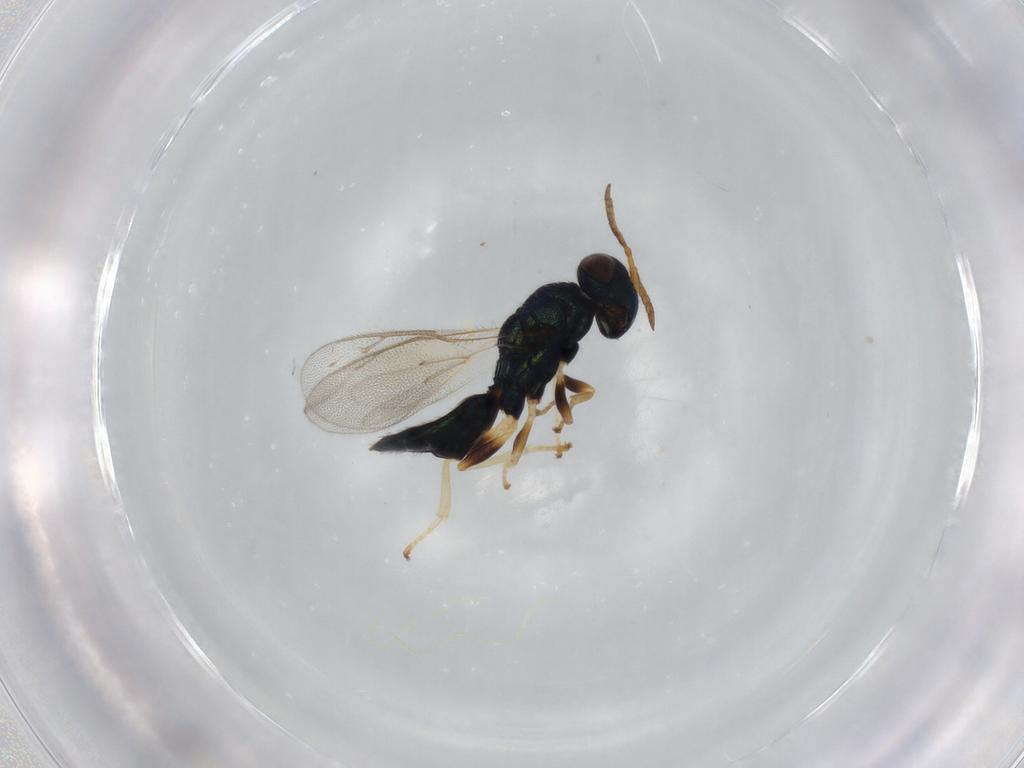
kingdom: Animalia
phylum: Arthropoda
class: Insecta
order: Hymenoptera
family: Pteromalidae
